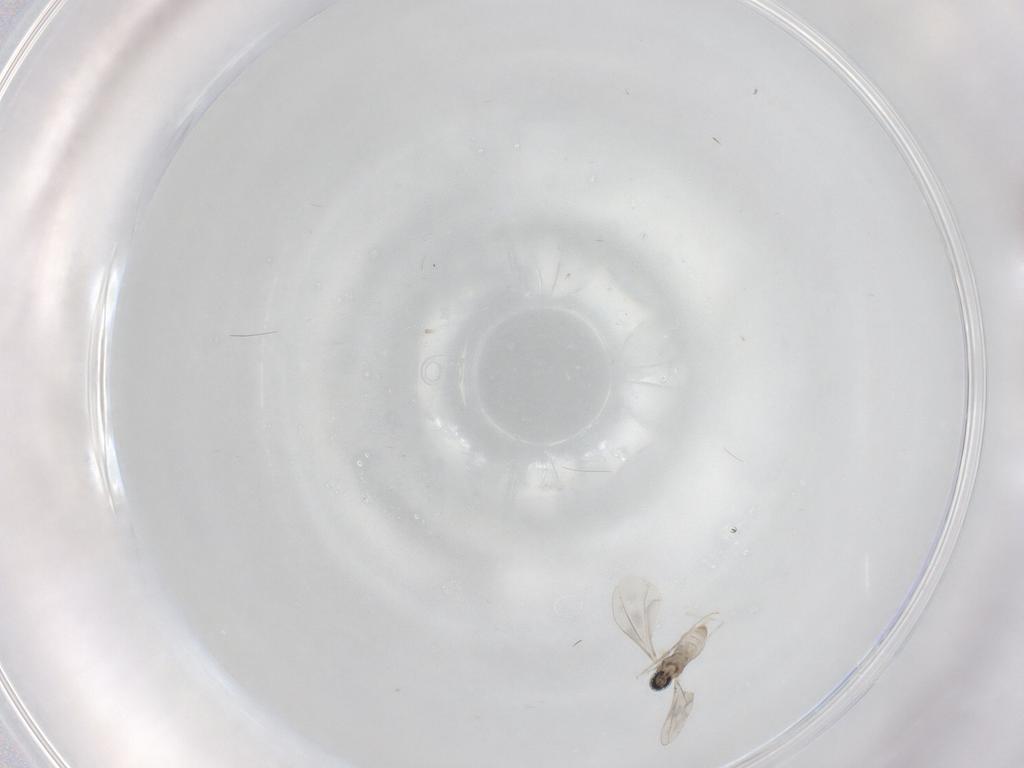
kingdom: Animalia
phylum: Arthropoda
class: Insecta
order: Diptera
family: Cecidomyiidae
